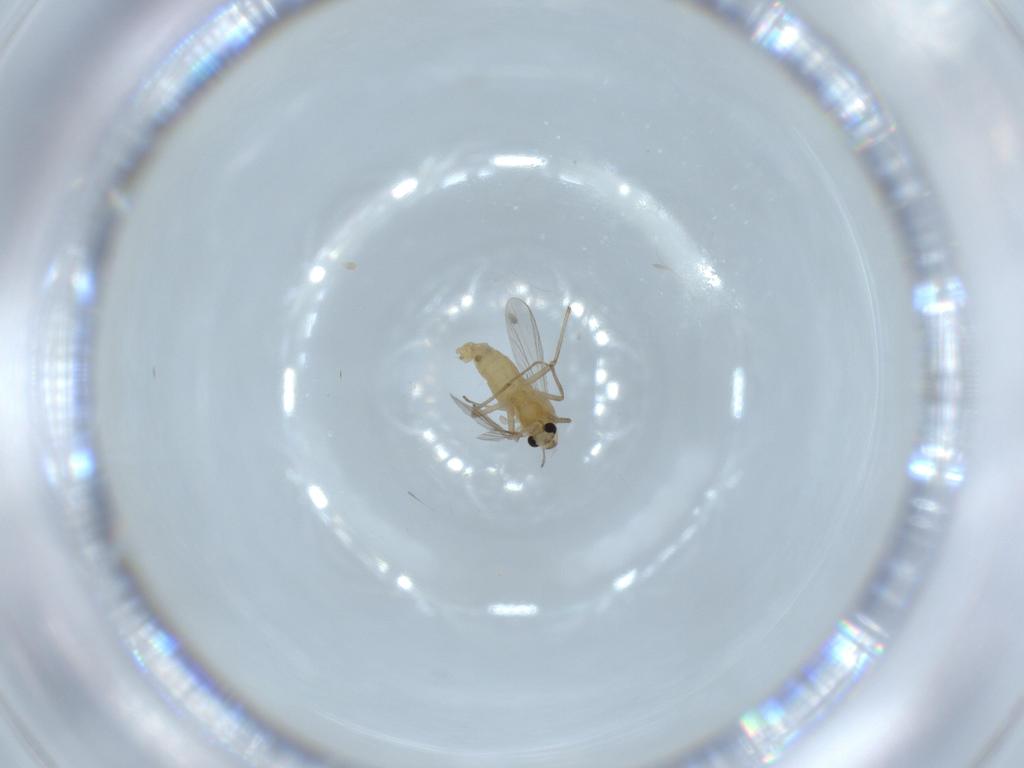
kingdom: Animalia
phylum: Arthropoda
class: Insecta
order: Diptera
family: Chironomidae
